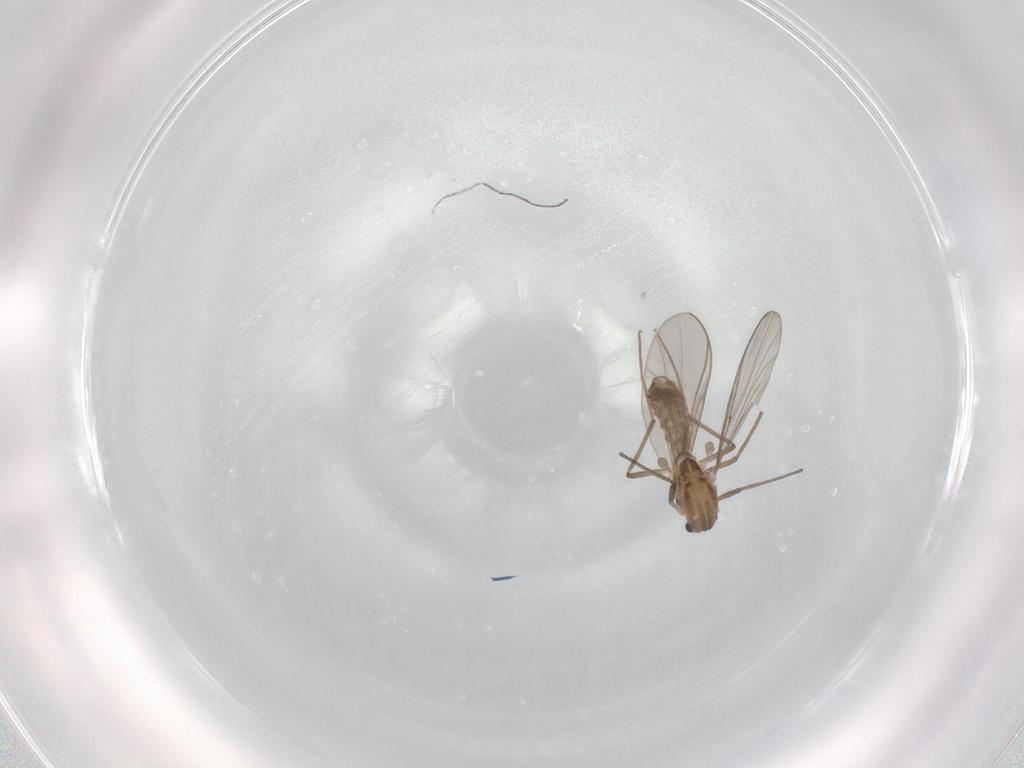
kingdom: Animalia
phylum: Arthropoda
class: Insecta
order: Diptera
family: Chironomidae
